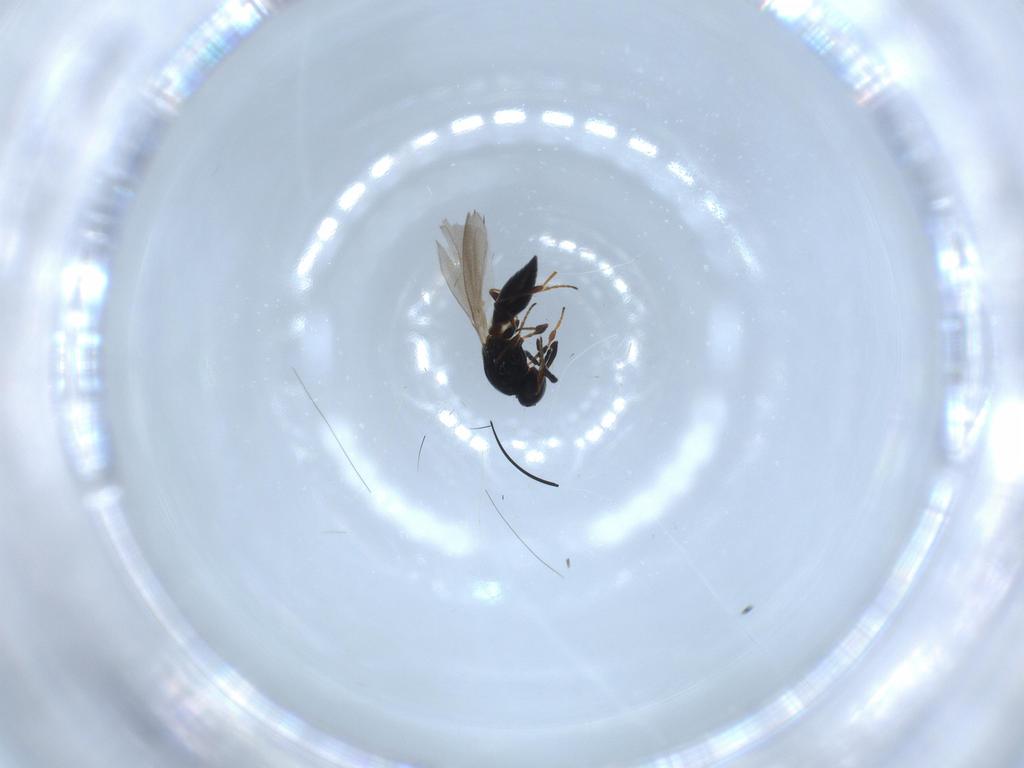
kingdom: Animalia
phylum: Arthropoda
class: Insecta
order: Hymenoptera
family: Platygastridae
